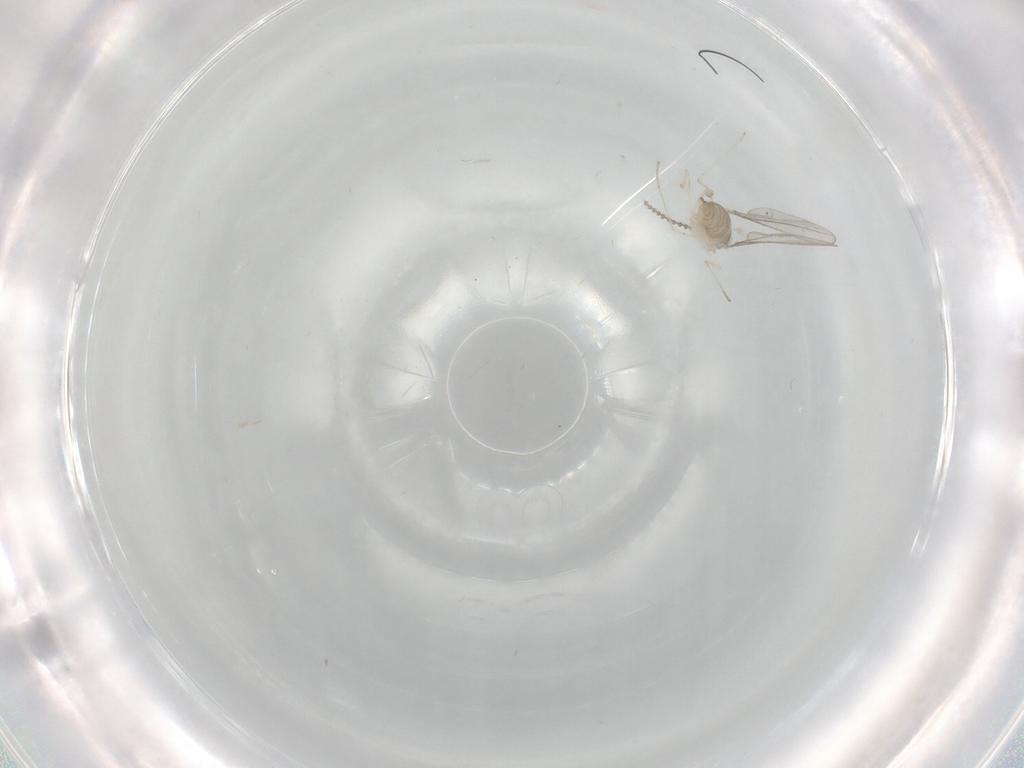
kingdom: Animalia
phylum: Arthropoda
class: Insecta
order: Diptera
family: Cecidomyiidae
